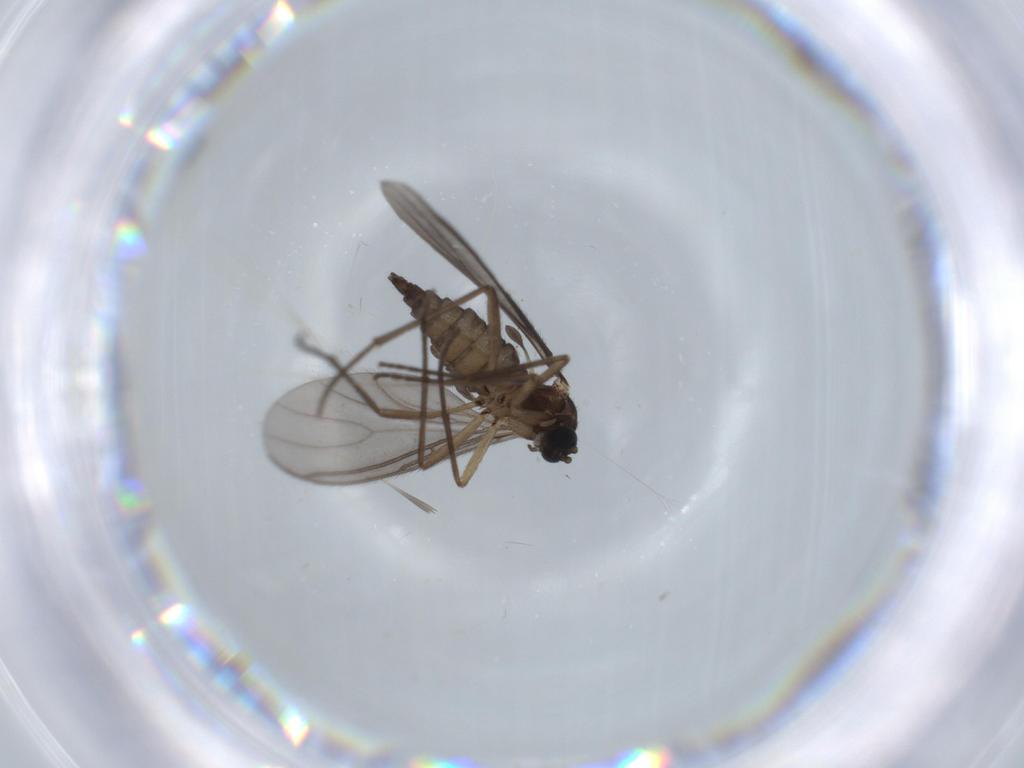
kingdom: Animalia
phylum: Arthropoda
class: Insecta
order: Diptera
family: Sciaridae
